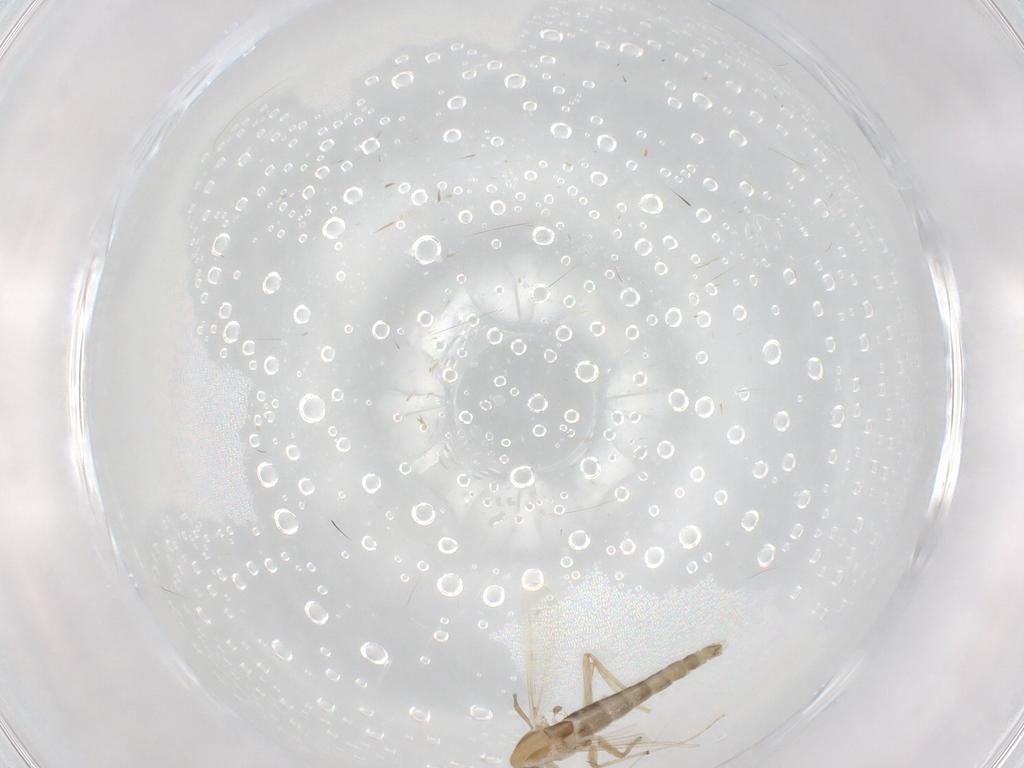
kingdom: Animalia
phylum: Arthropoda
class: Insecta
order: Diptera
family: Chironomidae
